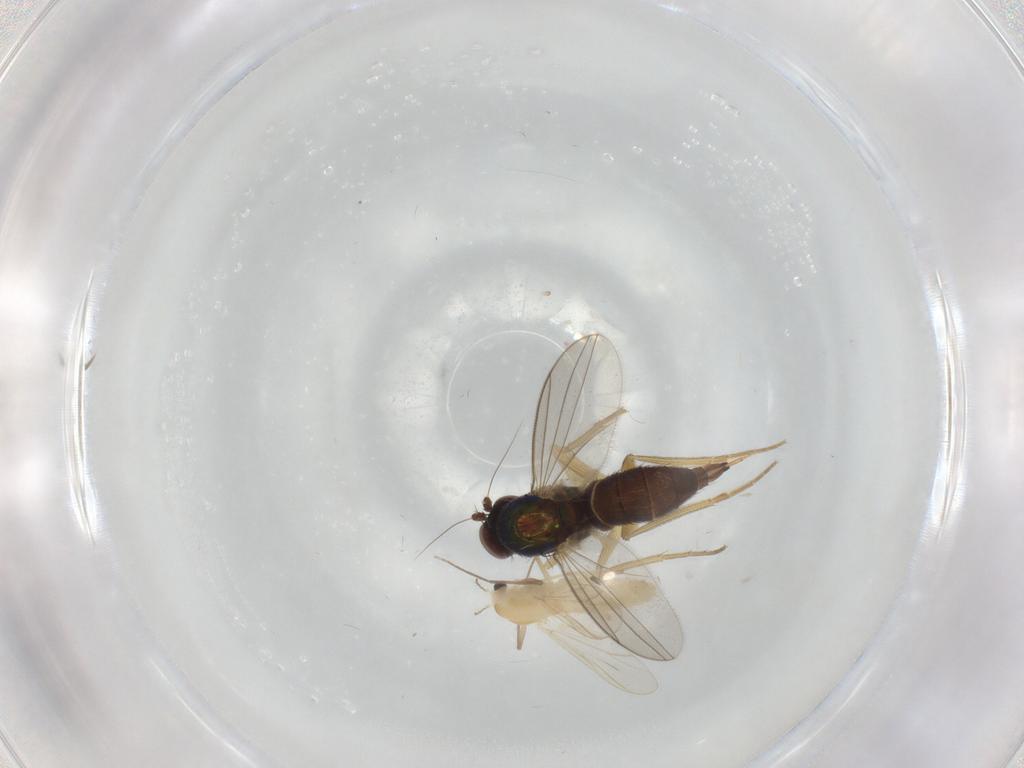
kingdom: Animalia
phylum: Arthropoda
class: Insecta
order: Diptera
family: Dolichopodidae
